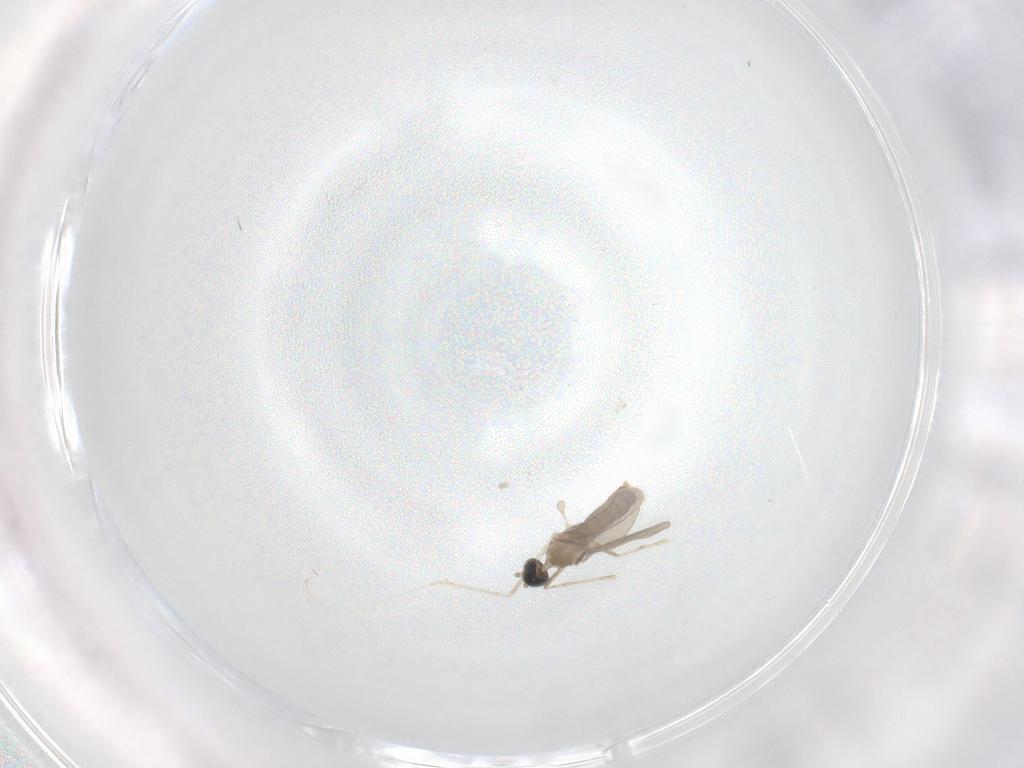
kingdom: Animalia
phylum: Arthropoda
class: Insecta
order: Diptera
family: Cecidomyiidae
